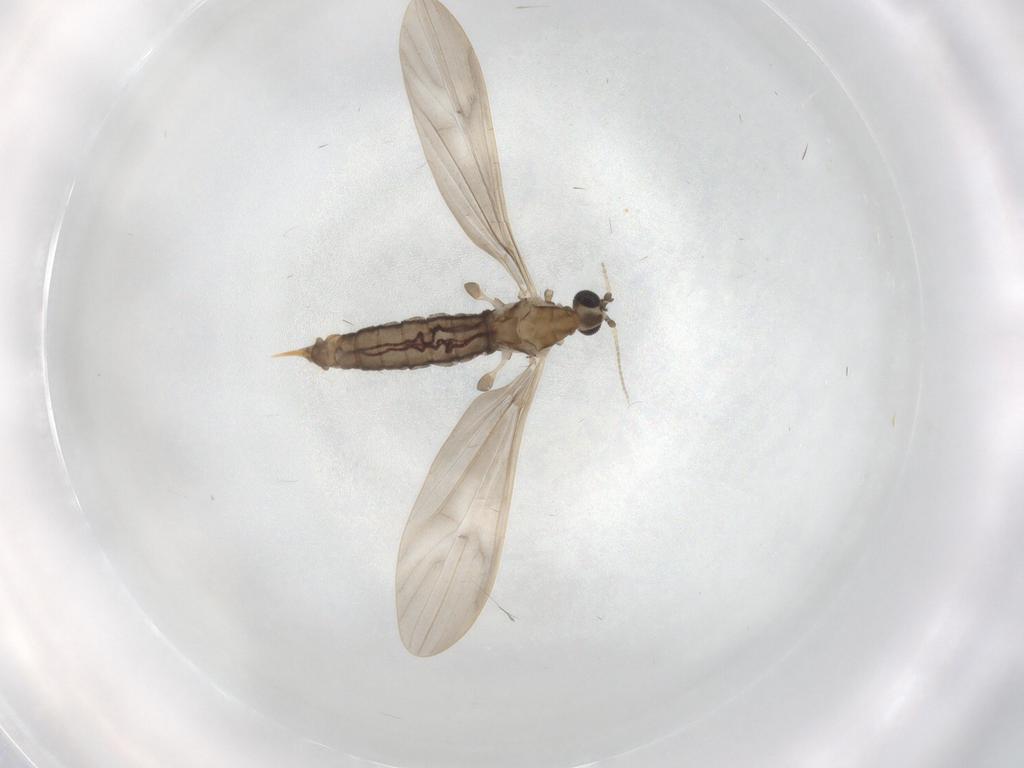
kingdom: Animalia
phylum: Arthropoda
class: Insecta
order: Diptera
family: Limoniidae
